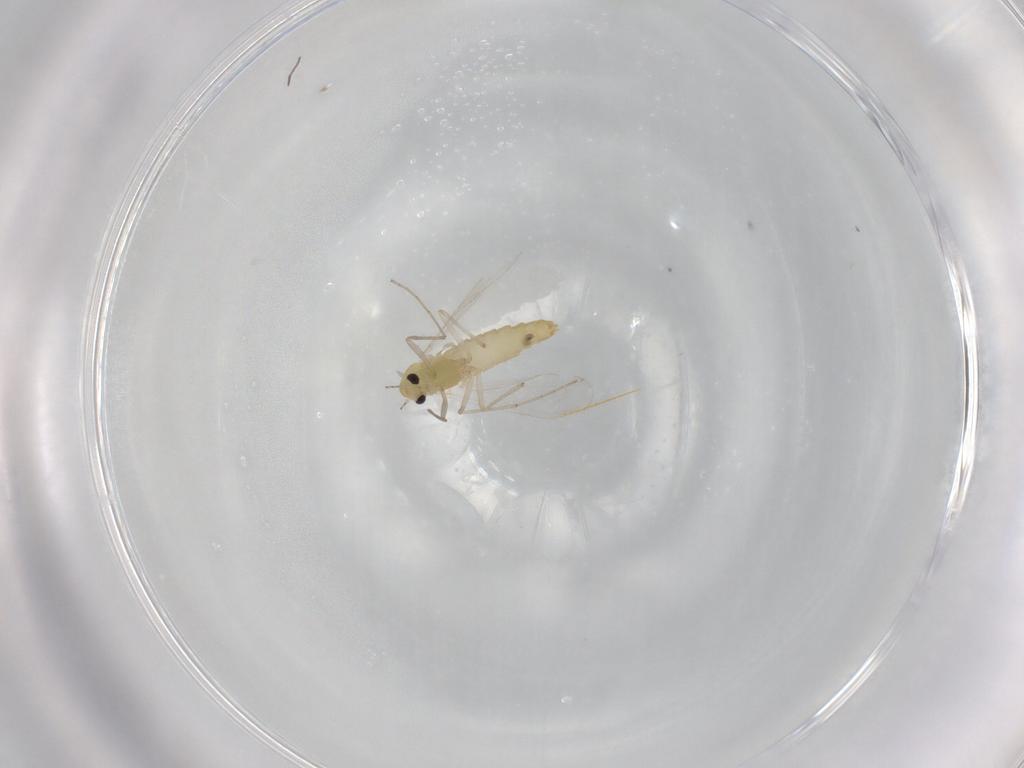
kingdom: Animalia
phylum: Arthropoda
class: Insecta
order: Diptera
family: Chironomidae
